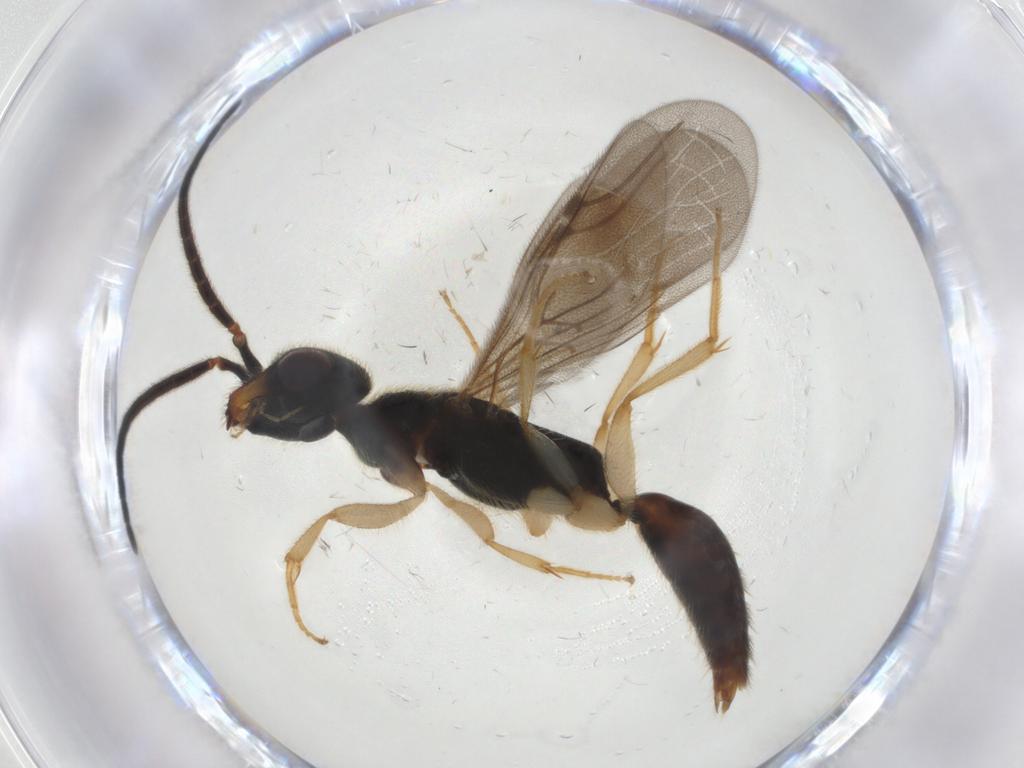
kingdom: Animalia
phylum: Arthropoda
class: Insecta
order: Hymenoptera
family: Bethylidae
